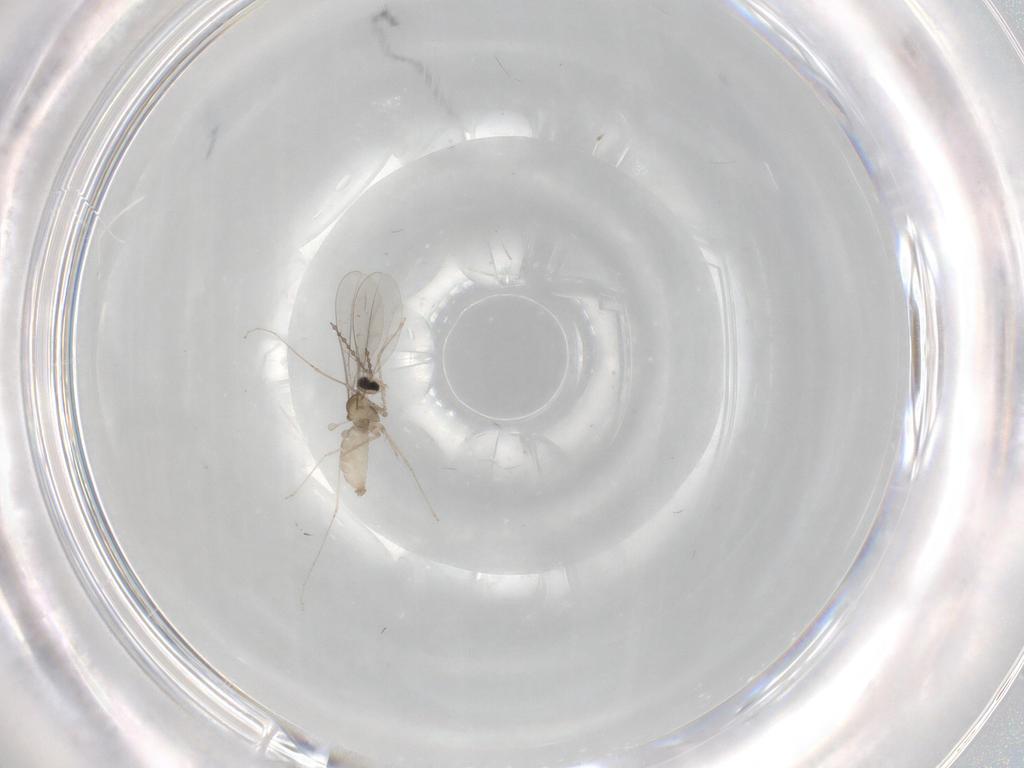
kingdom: Animalia
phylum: Arthropoda
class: Insecta
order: Diptera
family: Cecidomyiidae
